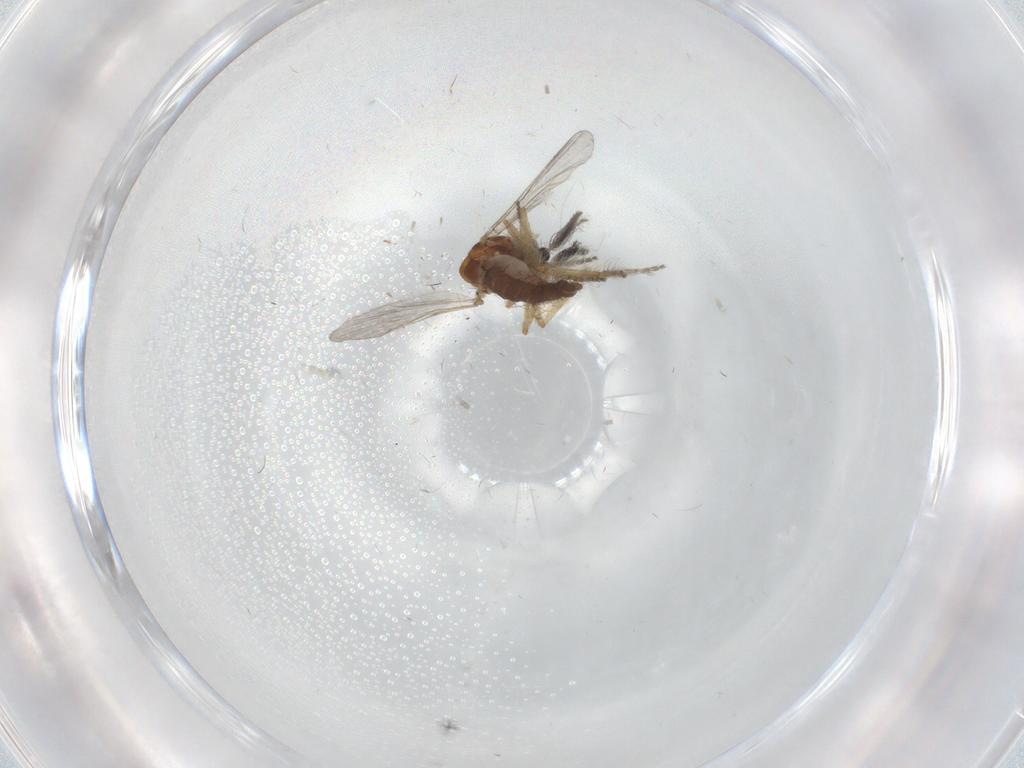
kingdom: Animalia
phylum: Arthropoda
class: Insecta
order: Diptera
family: Ceratopogonidae
